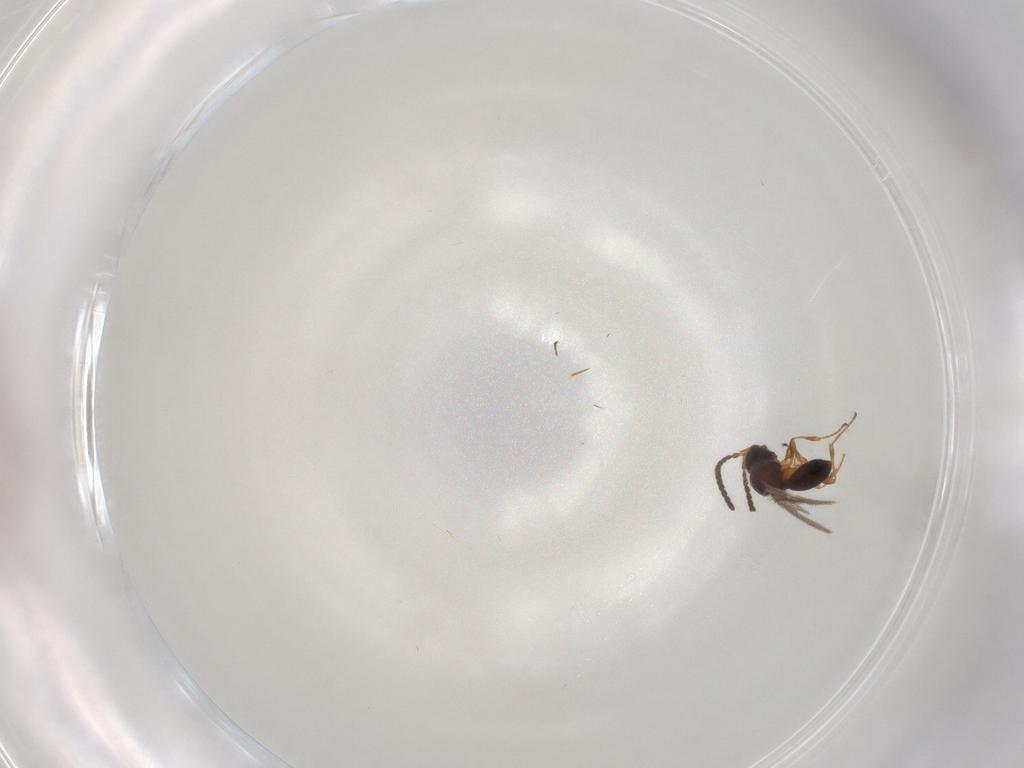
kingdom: Animalia
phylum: Arthropoda
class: Insecta
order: Hymenoptera
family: Diapriidae
